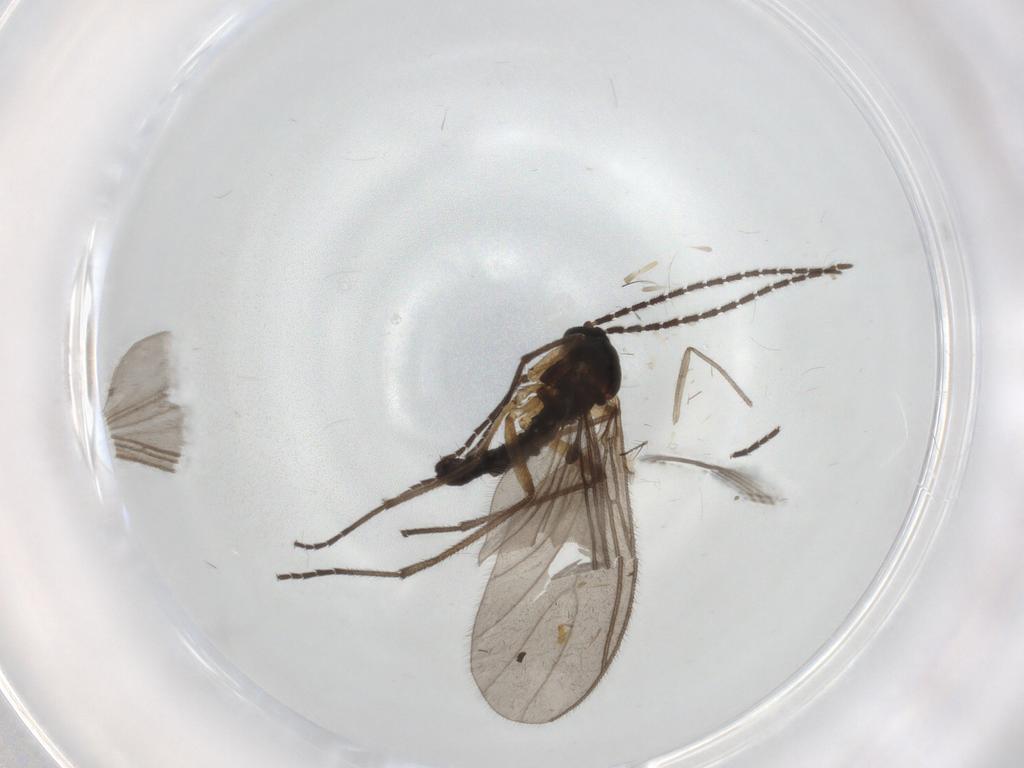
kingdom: Animalia
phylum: Arthropoda
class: Insecta
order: Diptera
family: Sciaridae
